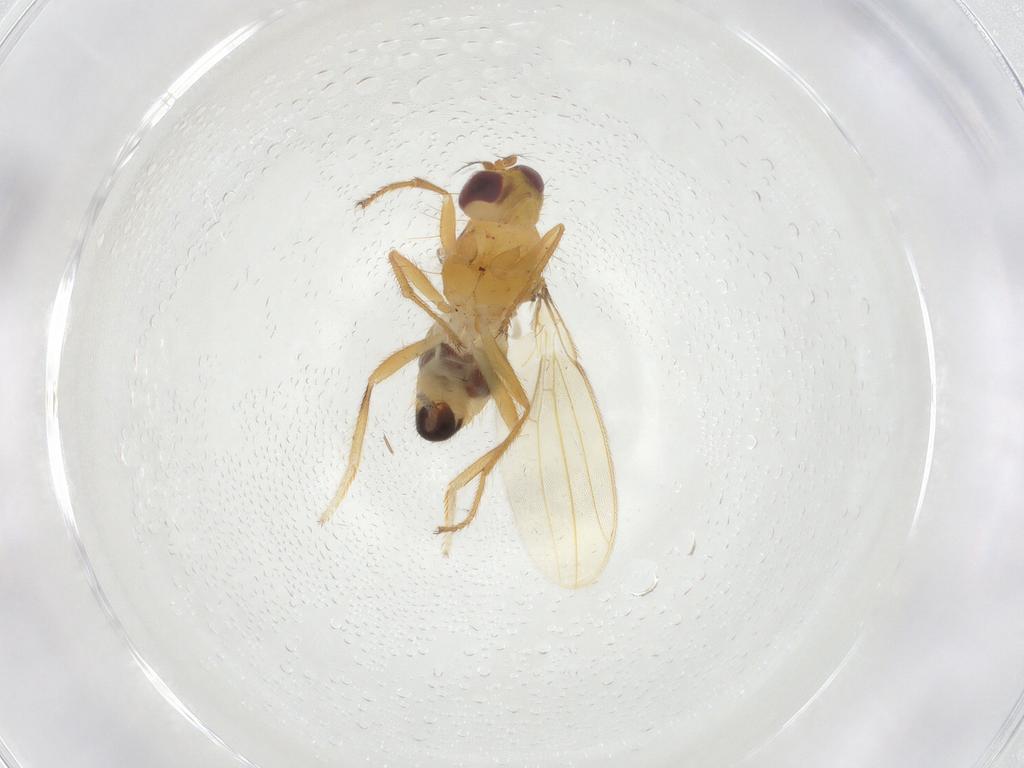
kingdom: Animalia
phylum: Arthropoda
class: Insecta
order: Diptera
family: Periscelididae
